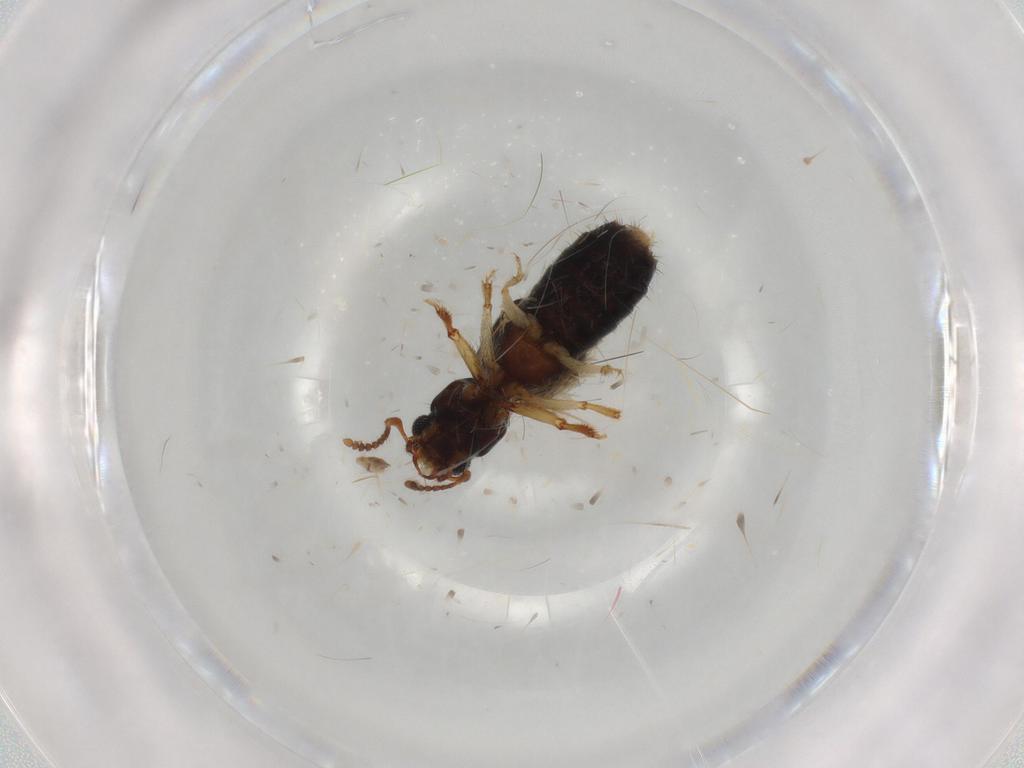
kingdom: Animalia
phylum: Arthropoda
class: Insecta
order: Coleoptera
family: Staphylinidae
